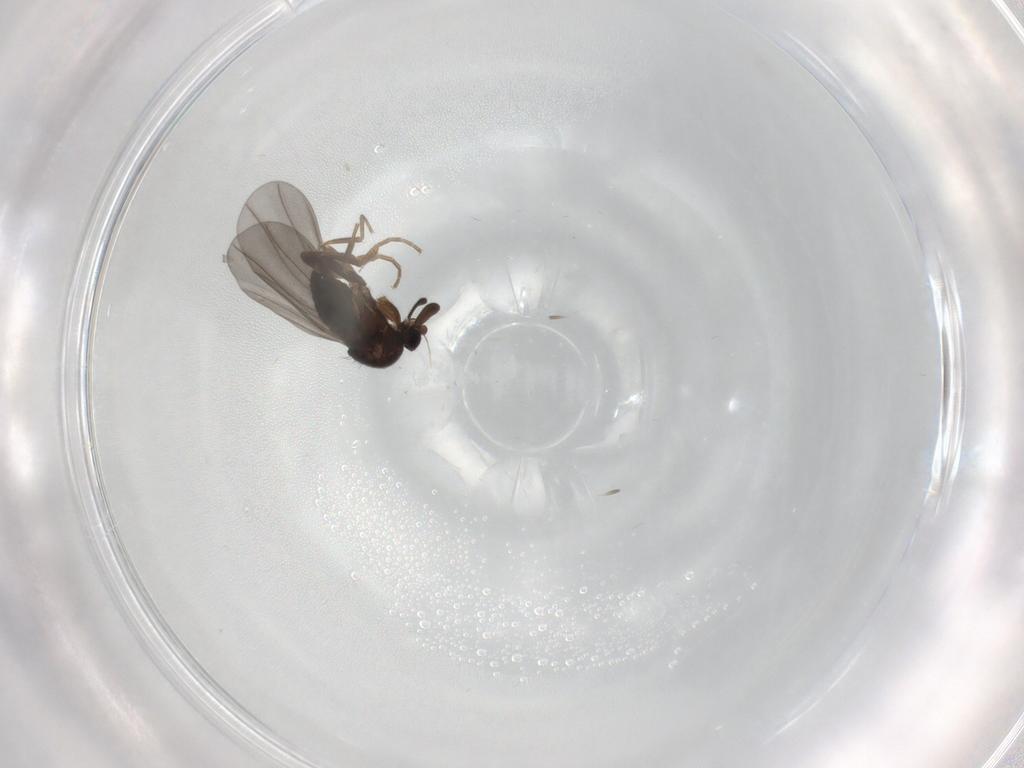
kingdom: Animalia
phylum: Arthropoda
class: Insecta
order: Diptera
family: Phoridae
